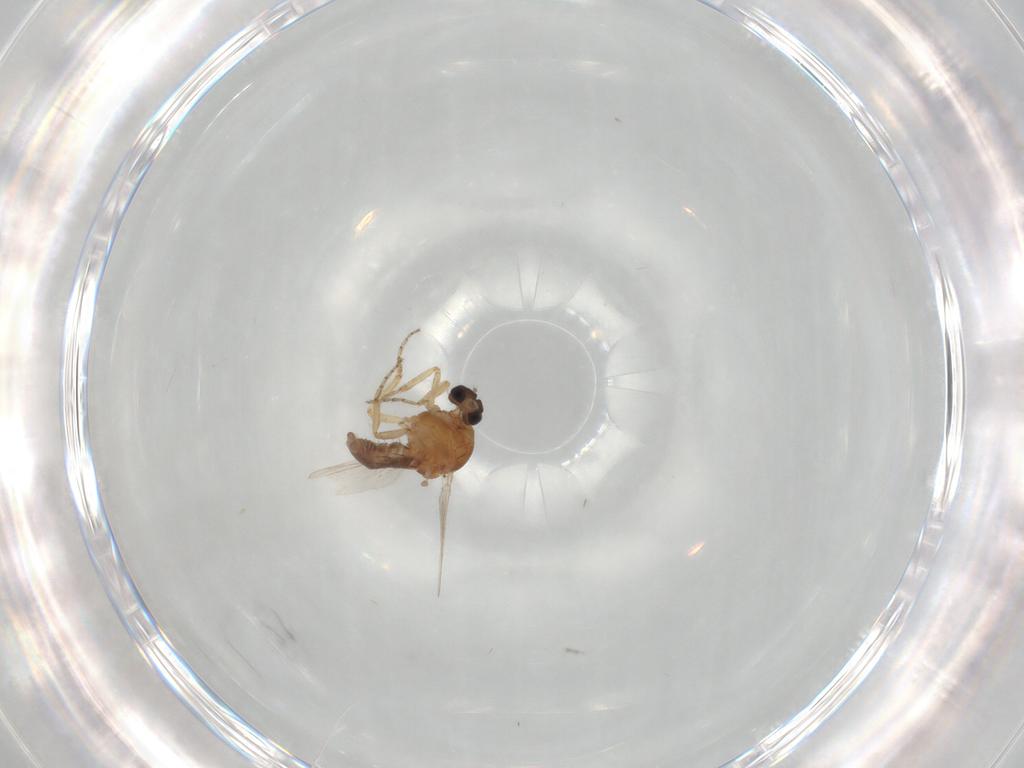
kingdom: Animalia
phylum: Arthropoda
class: Insecta
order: Diptera
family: Ceratopogonidae
